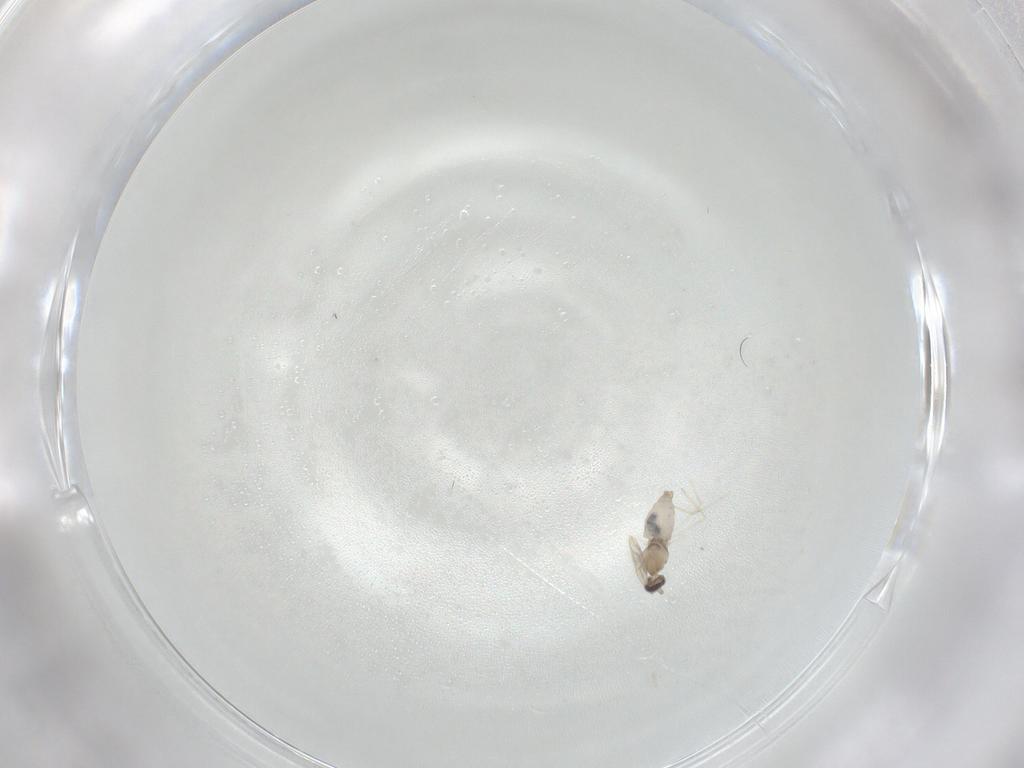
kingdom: Animalia
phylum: Arthropoda
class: Insecta
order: Diptera
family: Cecidomyiidae
